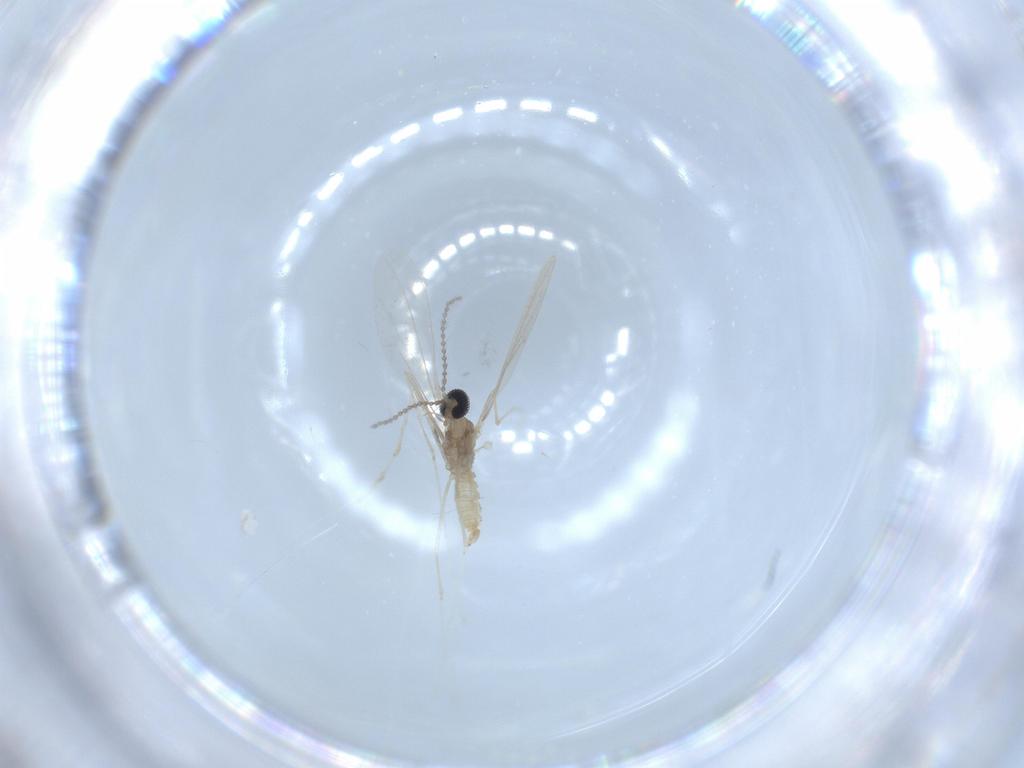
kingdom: Animalia
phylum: Arthropoda
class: Insecta
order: Diptera
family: Cecidomyiidae
